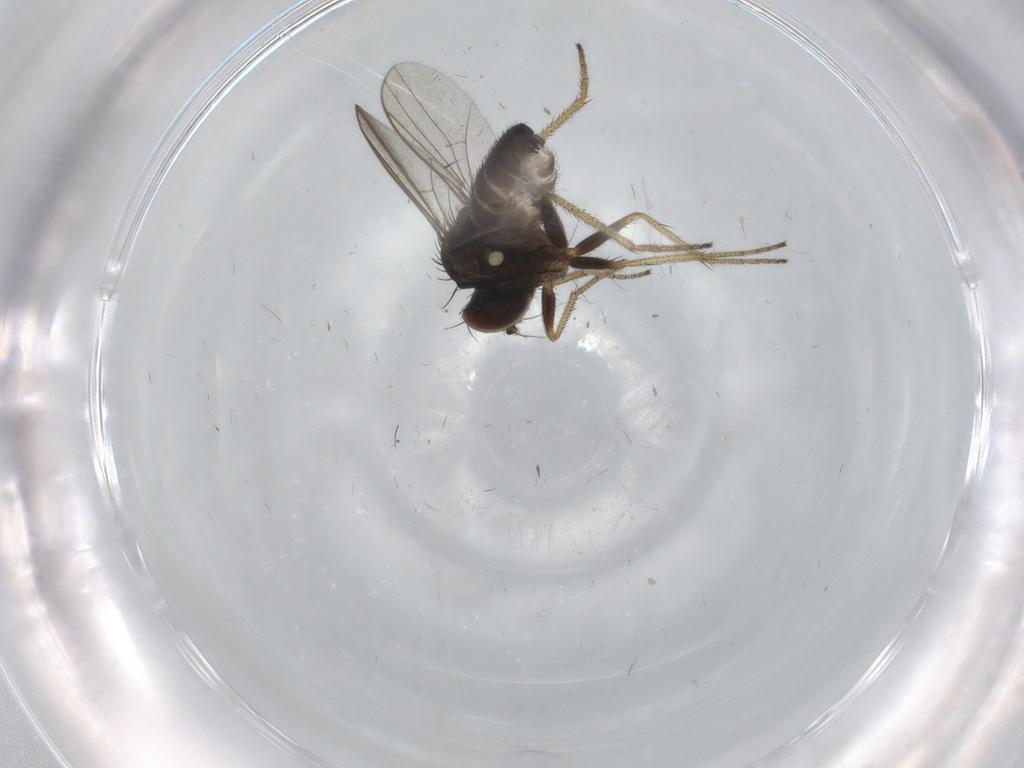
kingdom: Animalia
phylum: Arthropoda
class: Insecta
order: Diptera
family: Dolichopodidae
